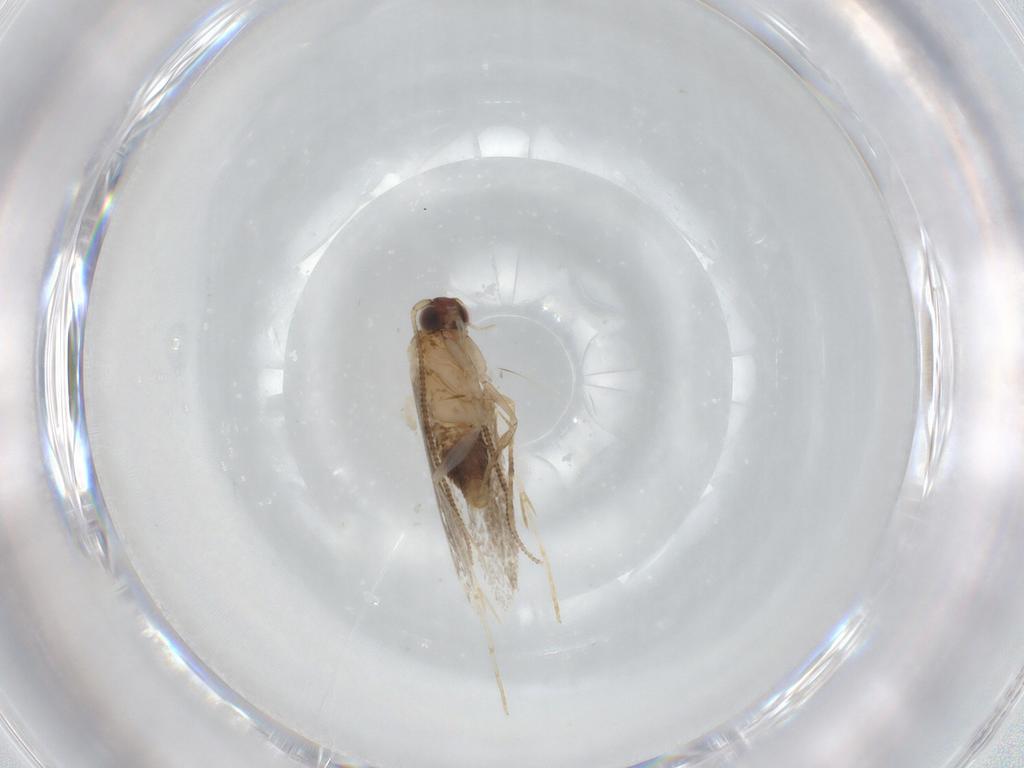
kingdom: Animalia
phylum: Arthropoda
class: Insecta
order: Lepidoptera
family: Tineidae
